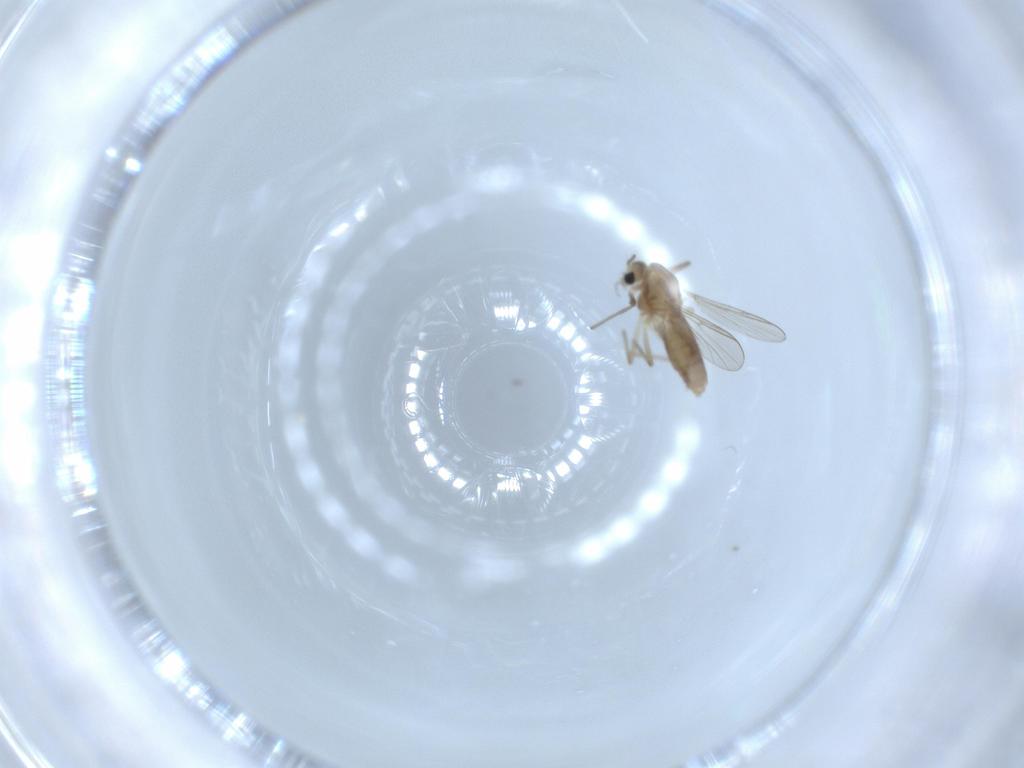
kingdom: Animalia
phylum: Arthropoda
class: Insecta
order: Diptera
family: Chironomidae
